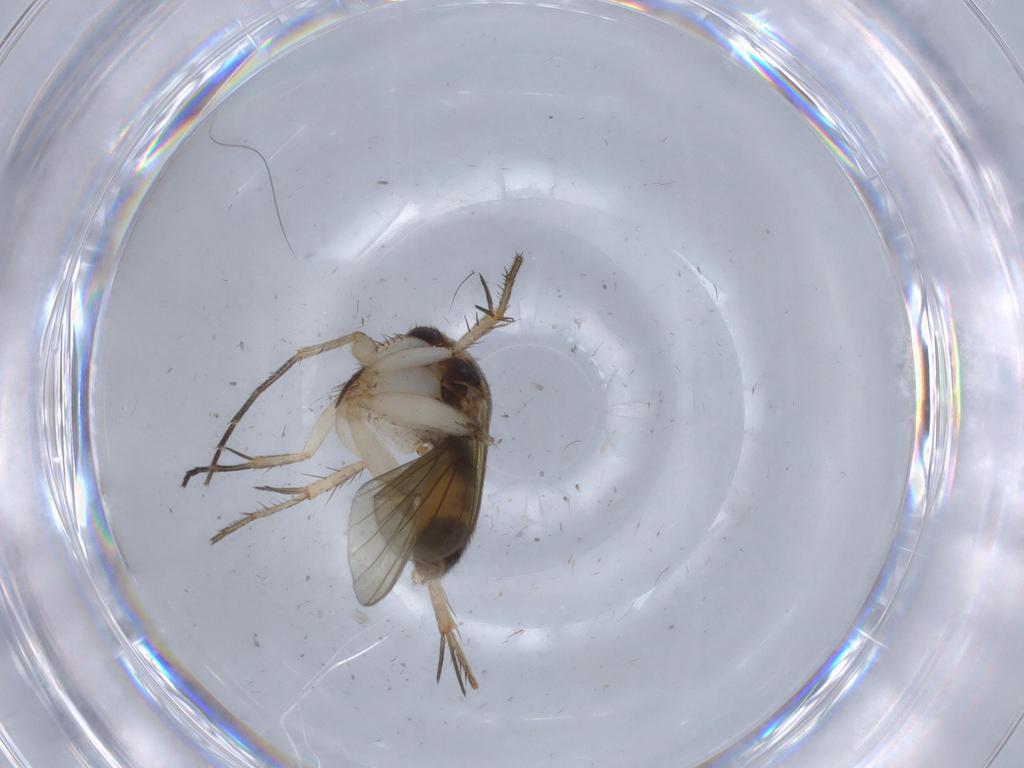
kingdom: Animalia
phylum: Arthropoda
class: Insecta
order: Diptera
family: Mycetophilidae
